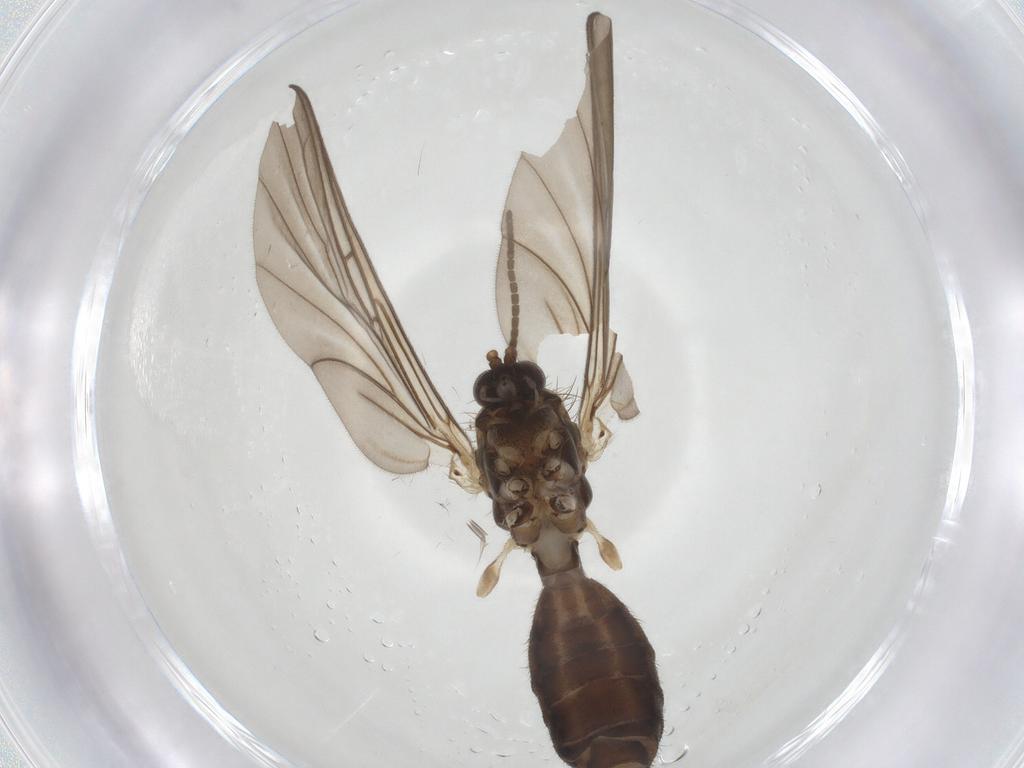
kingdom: Animalia
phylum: Arthropoda
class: Insecta
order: Diptera
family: Mycetophilidae
